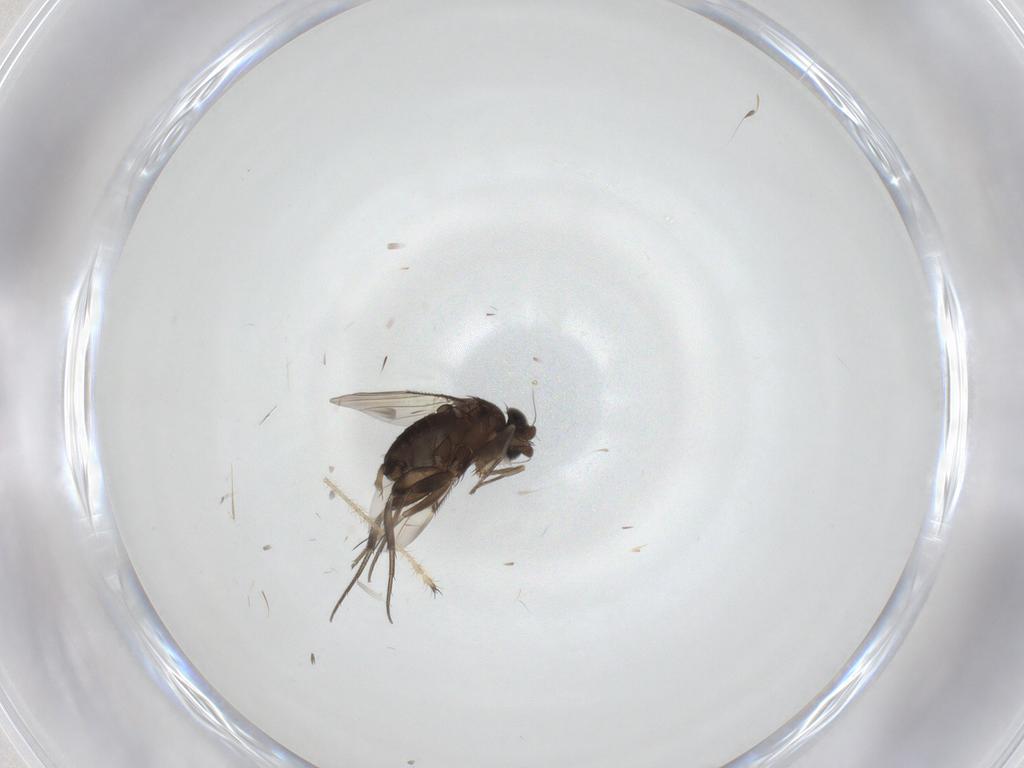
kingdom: Animalia
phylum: Arthropoda
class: Insecta
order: Diptera
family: Phoridae
